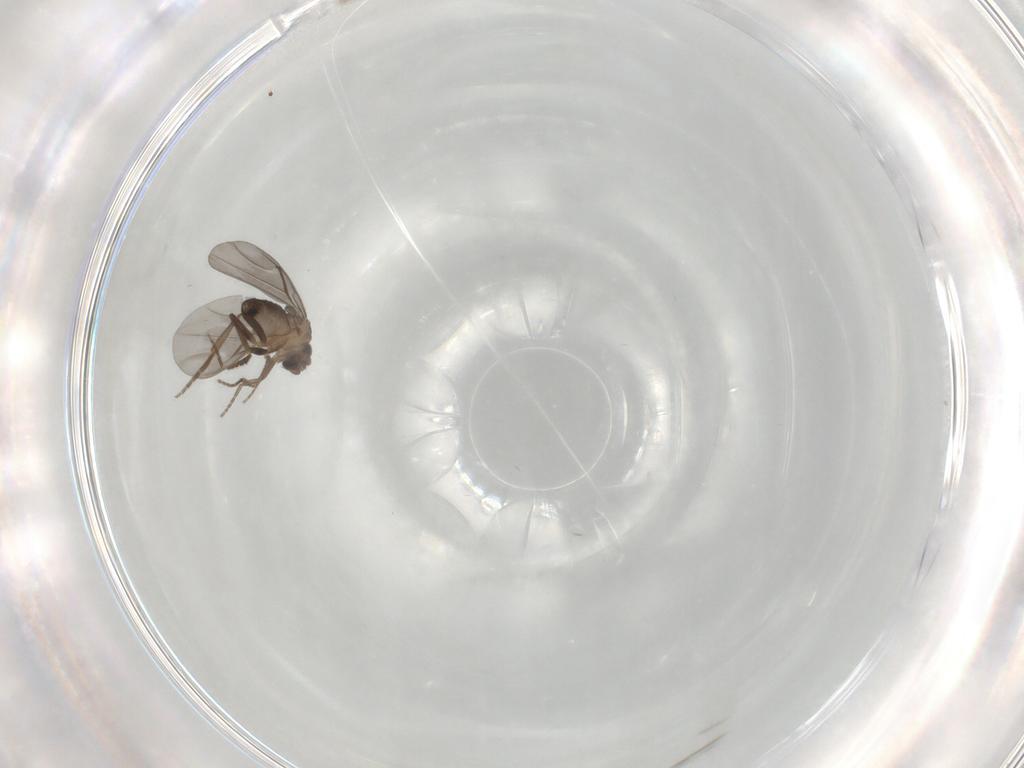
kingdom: Animalia
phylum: Arthropoda
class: Insecta
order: Diptera
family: Phoridae
